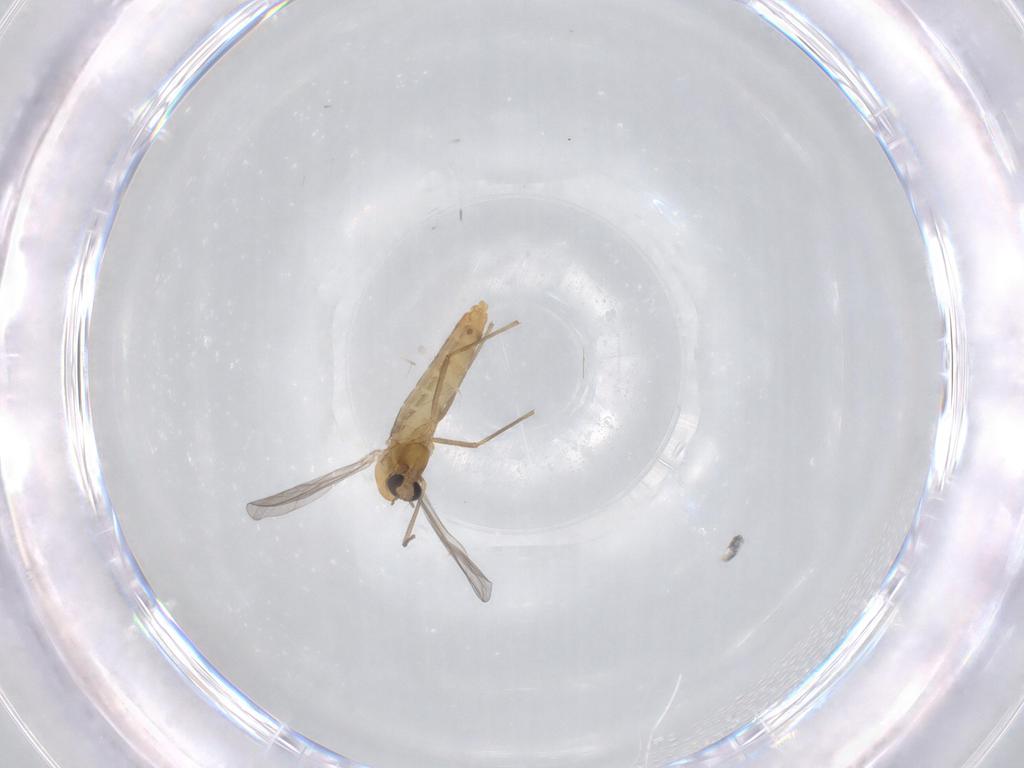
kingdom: Animalia
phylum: Arthropoda
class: Insecta
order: Diptera
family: Chironomidae
